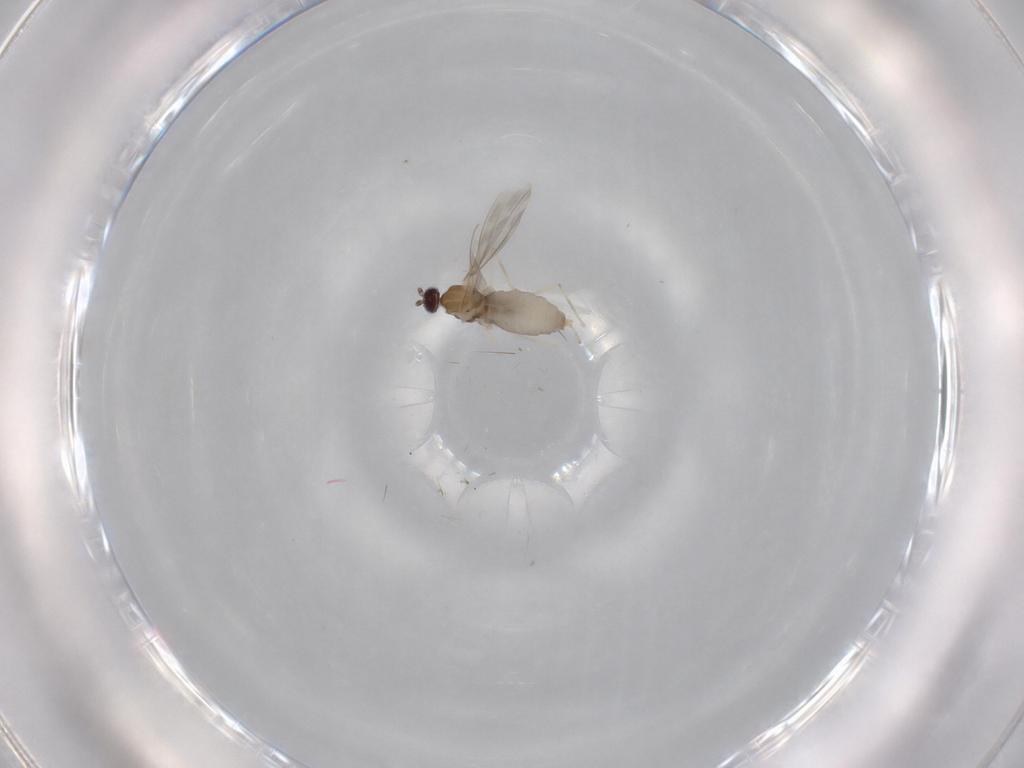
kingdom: Animalia
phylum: Arthropoda
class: Insecta
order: Diptera
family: Cecidomyiidae
